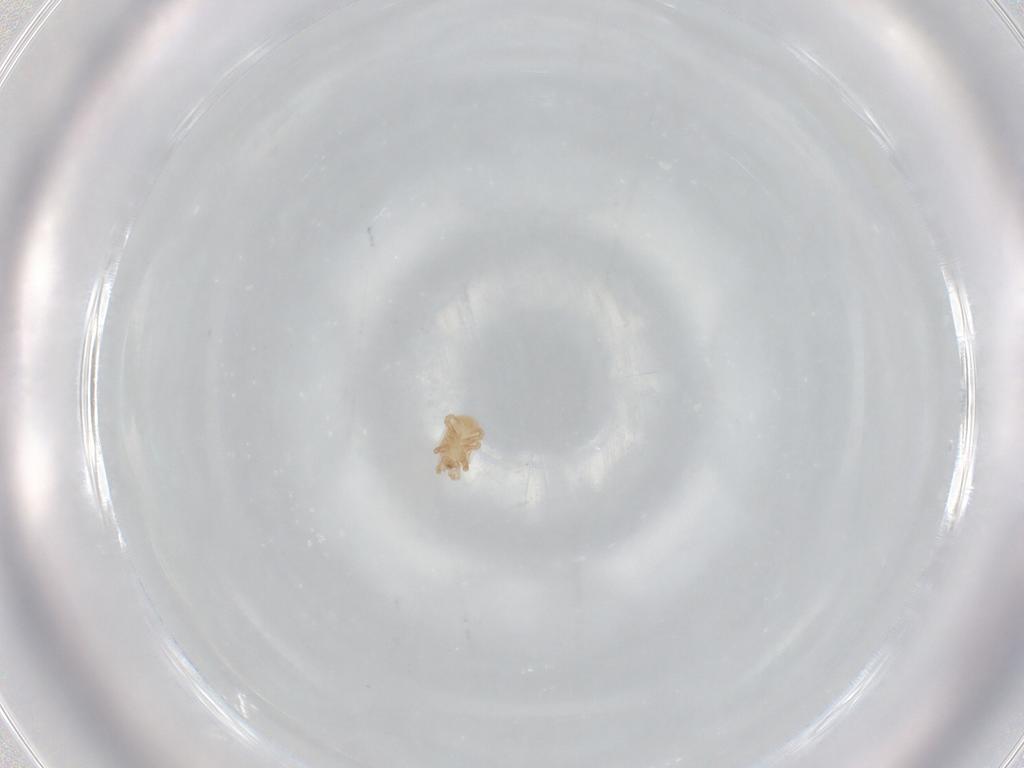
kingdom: Animalia
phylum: Arthropoda
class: Arachnida
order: Mesostigmata
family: Halolaelapidae
